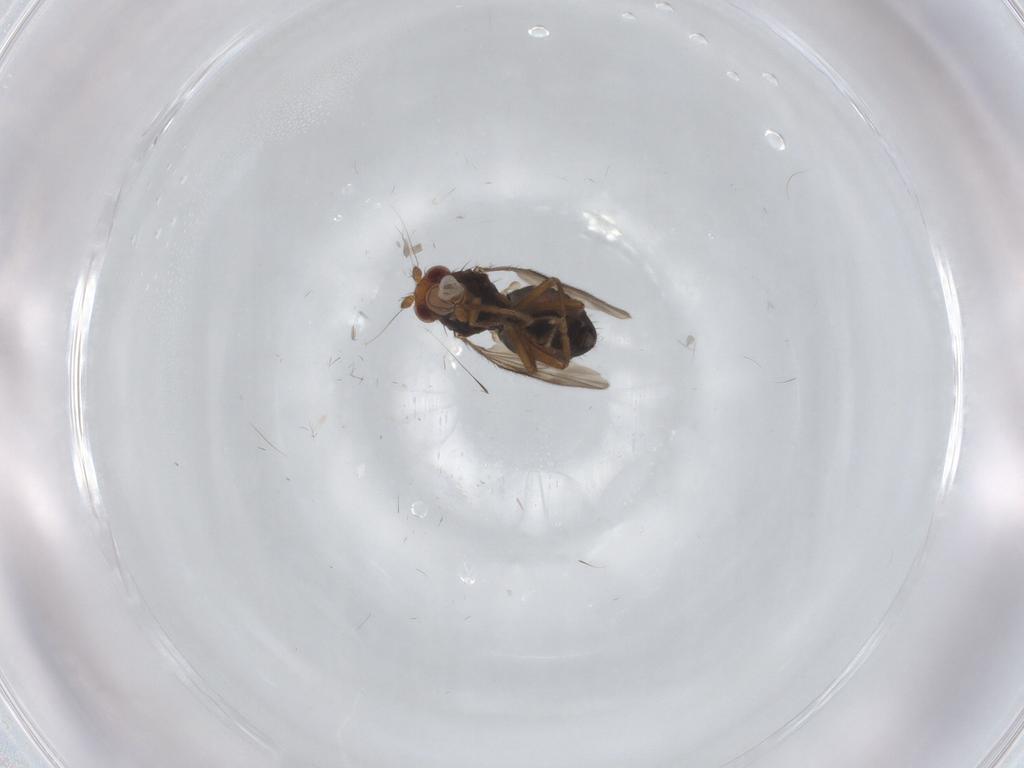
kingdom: Animalia
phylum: Arthropoda
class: Insecta
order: Diptera
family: Sphaeroceridae
